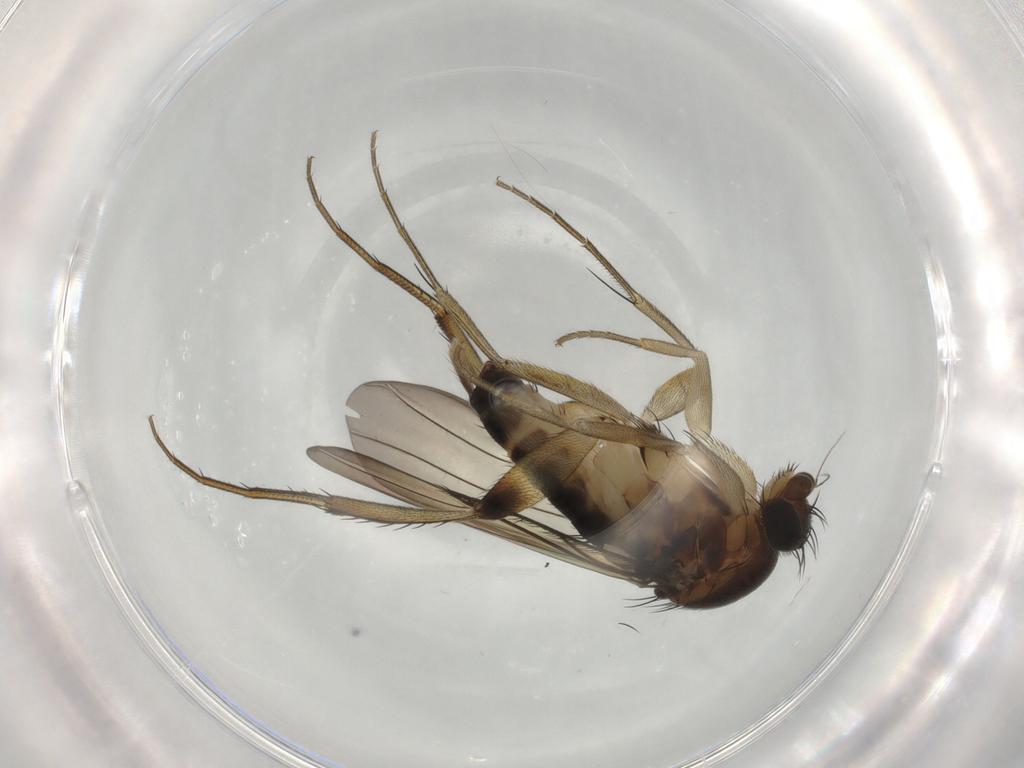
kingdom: Animalia
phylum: Arthropoda
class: Insecta
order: Diptera
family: Phoridae
